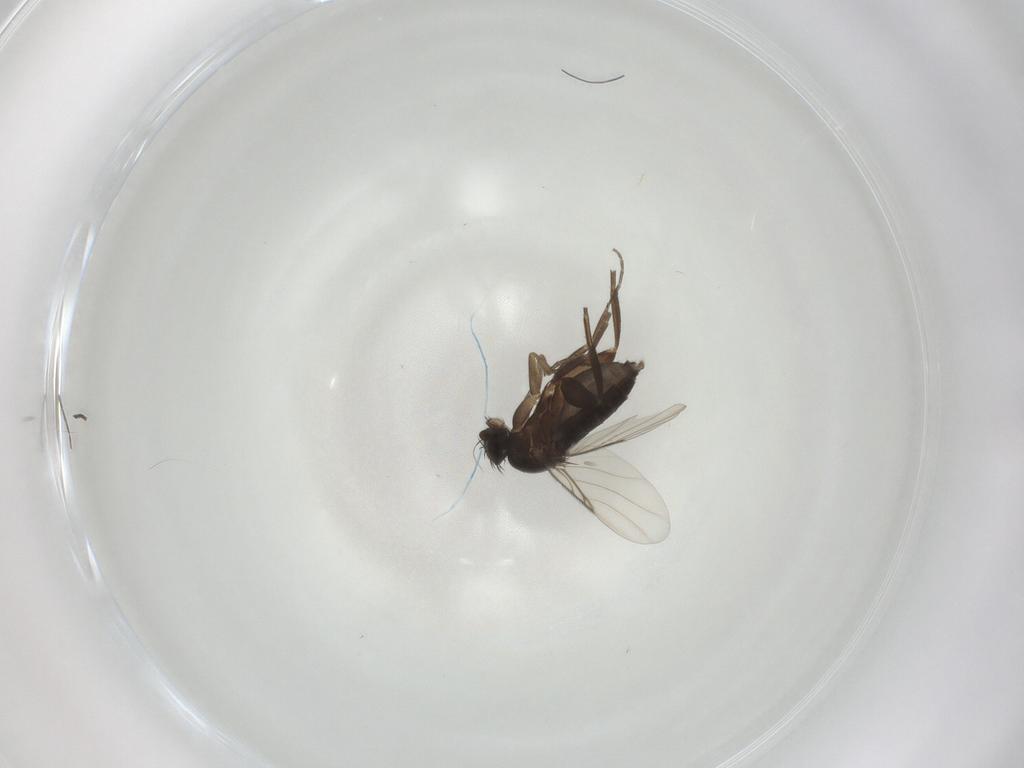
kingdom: Animalia
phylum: Arthropoda
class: Insecta
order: Diptera
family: Phoridae
